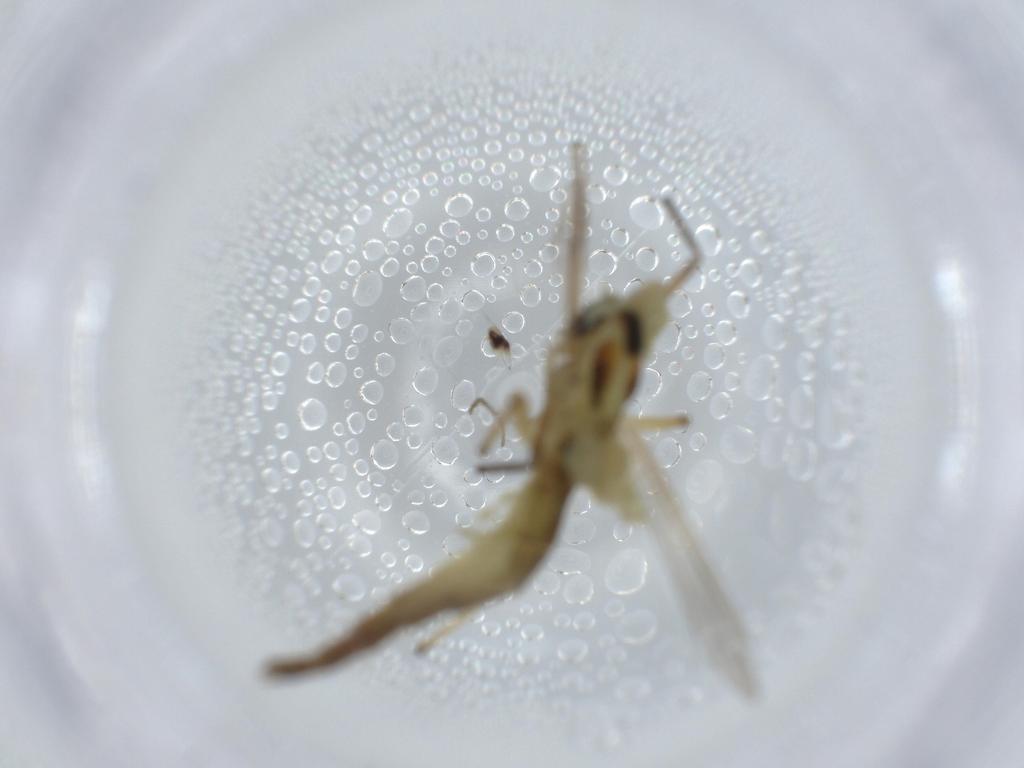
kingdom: Animalia
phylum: Arthropoda
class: Insecta
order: Diptera
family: Chironomidae
